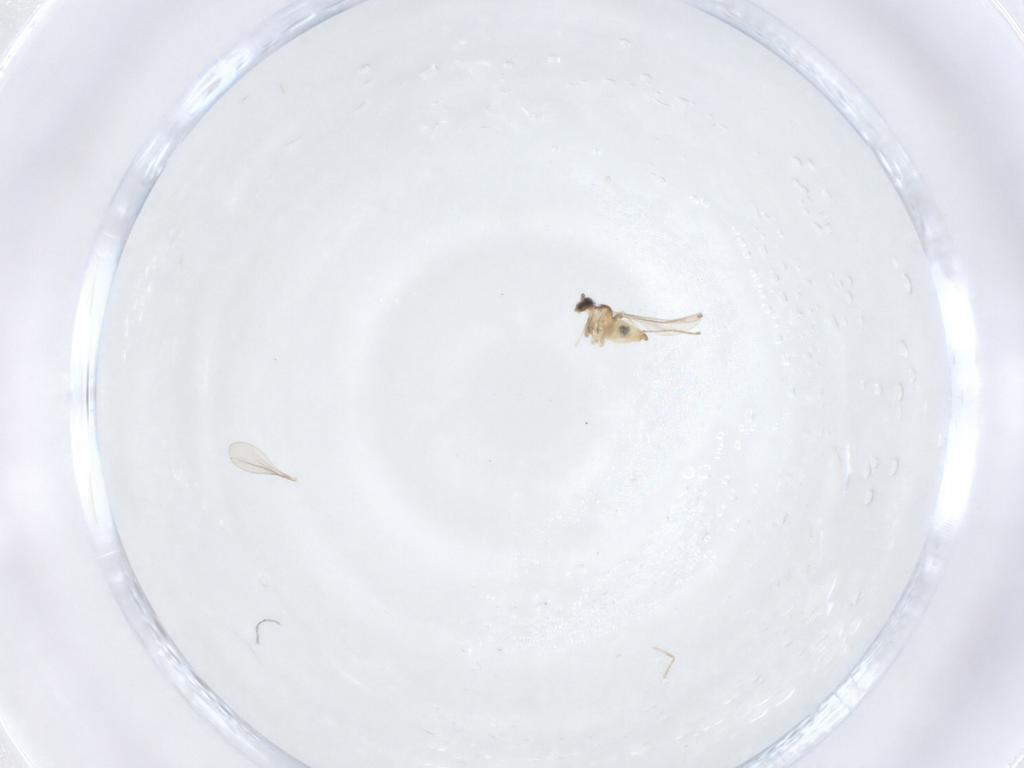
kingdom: Animalia
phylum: Arthropoda
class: Insecta
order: Diptera
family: Cecidomyiidae
